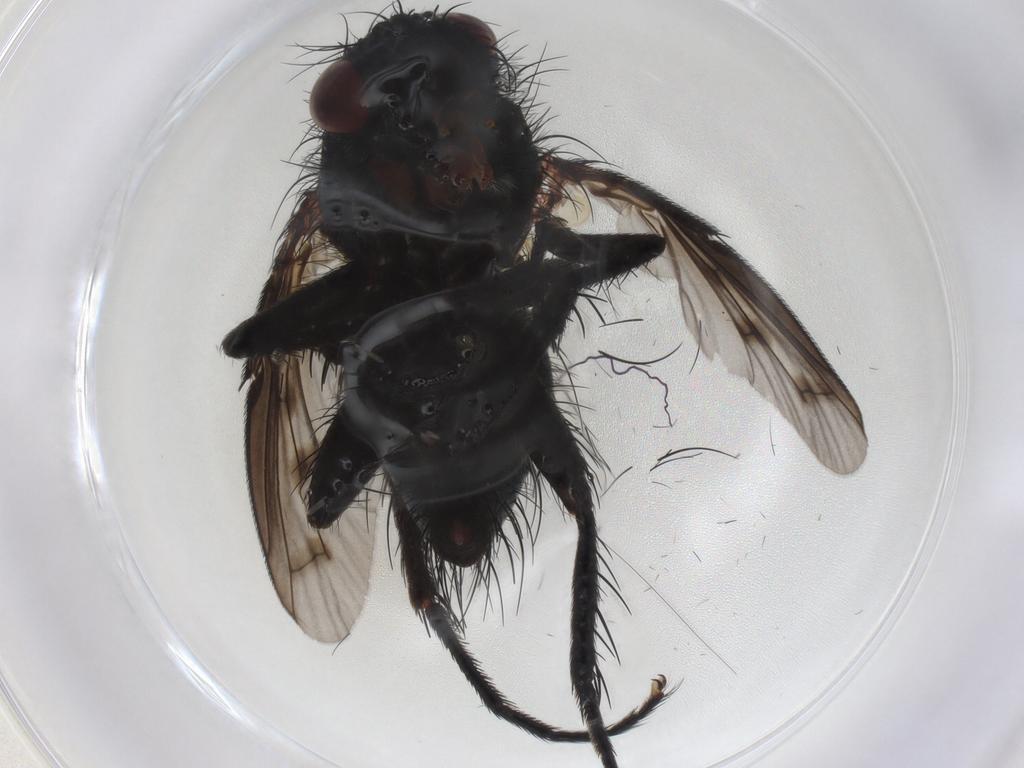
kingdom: Animalia
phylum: Arthropoda
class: Insecta
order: Diptera
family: Tachinidae
